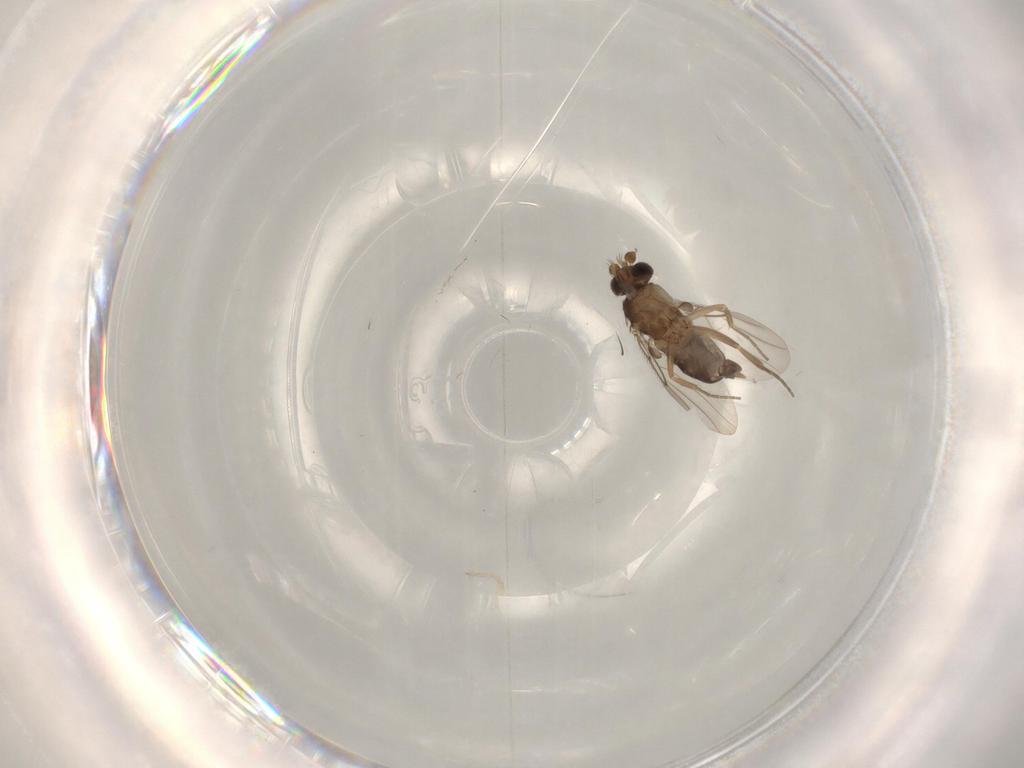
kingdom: Animalia
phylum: Arthropoda
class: Insecta
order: Diptera
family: Phoridae
